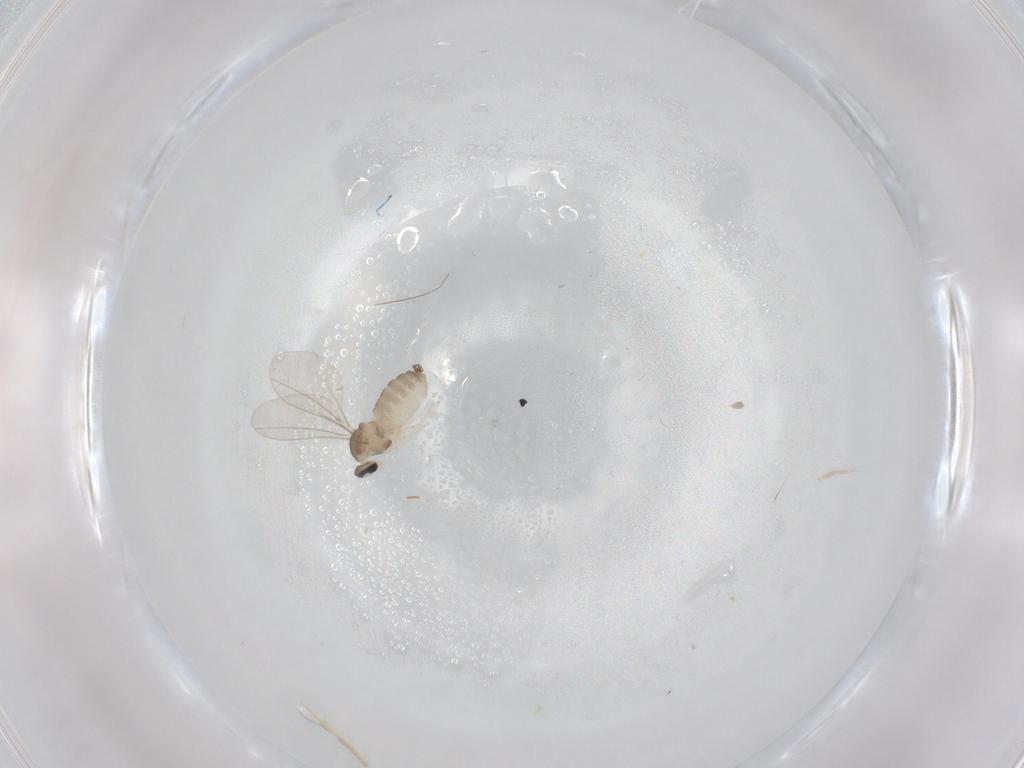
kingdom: Animalia
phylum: Arthropoda
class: Insecta
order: Diptera
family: Cecidomyiidae
